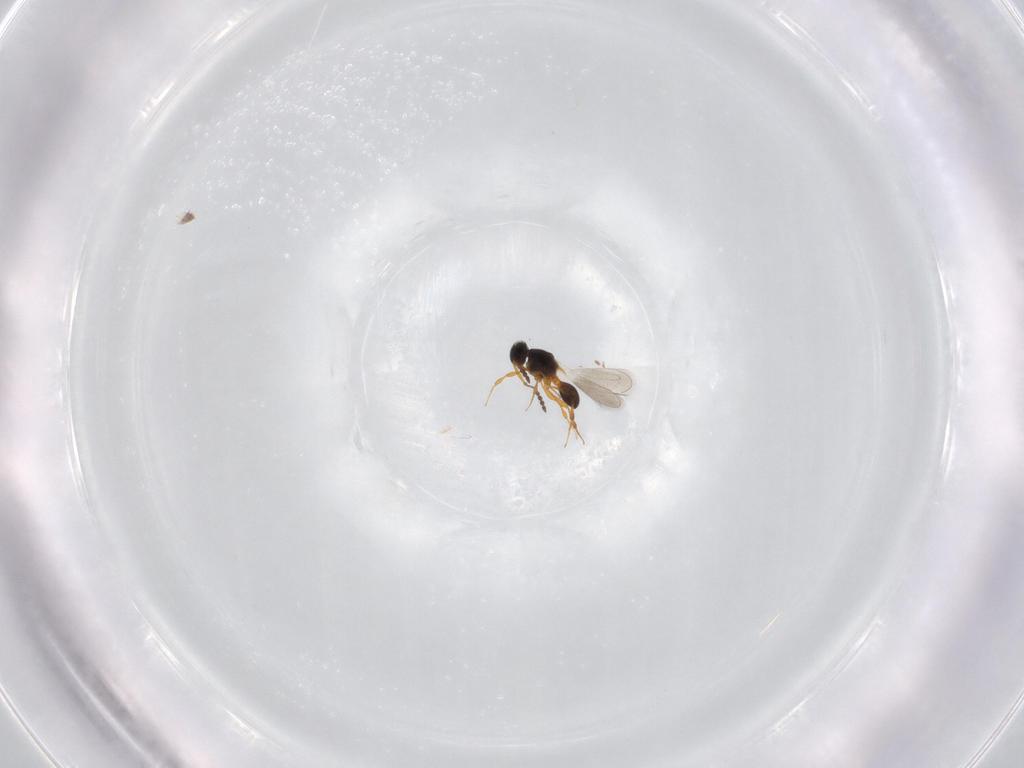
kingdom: Animalia
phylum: Arthropoda
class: Insecta
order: Hymenoptera
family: Platygastridae
